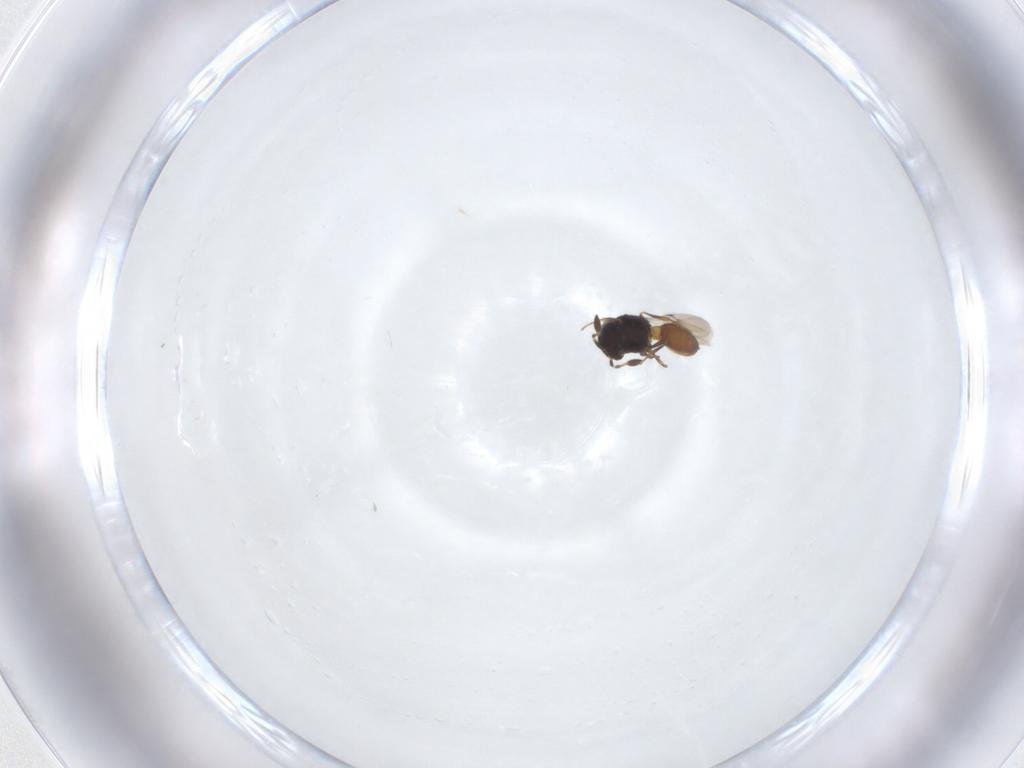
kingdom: Animalia
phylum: Arthropoda
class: Arachnida
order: Araneae
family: Pholcidae
